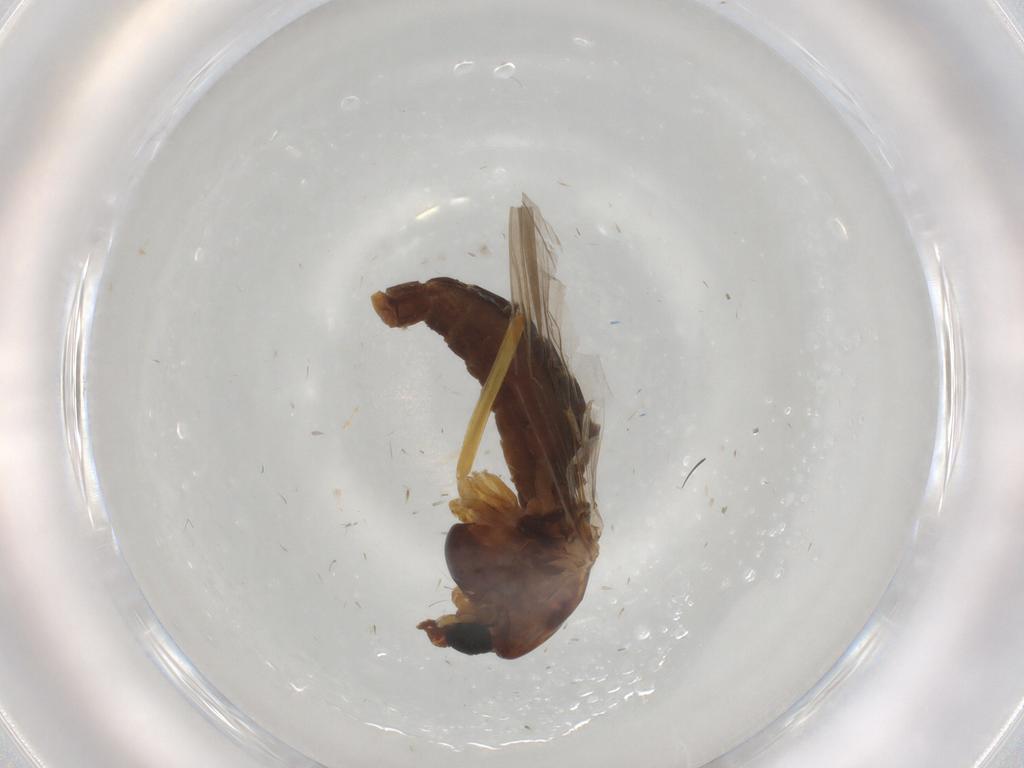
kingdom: Animalia
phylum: Arthropoda
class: Insecta
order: Diptera
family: Chironomidae
